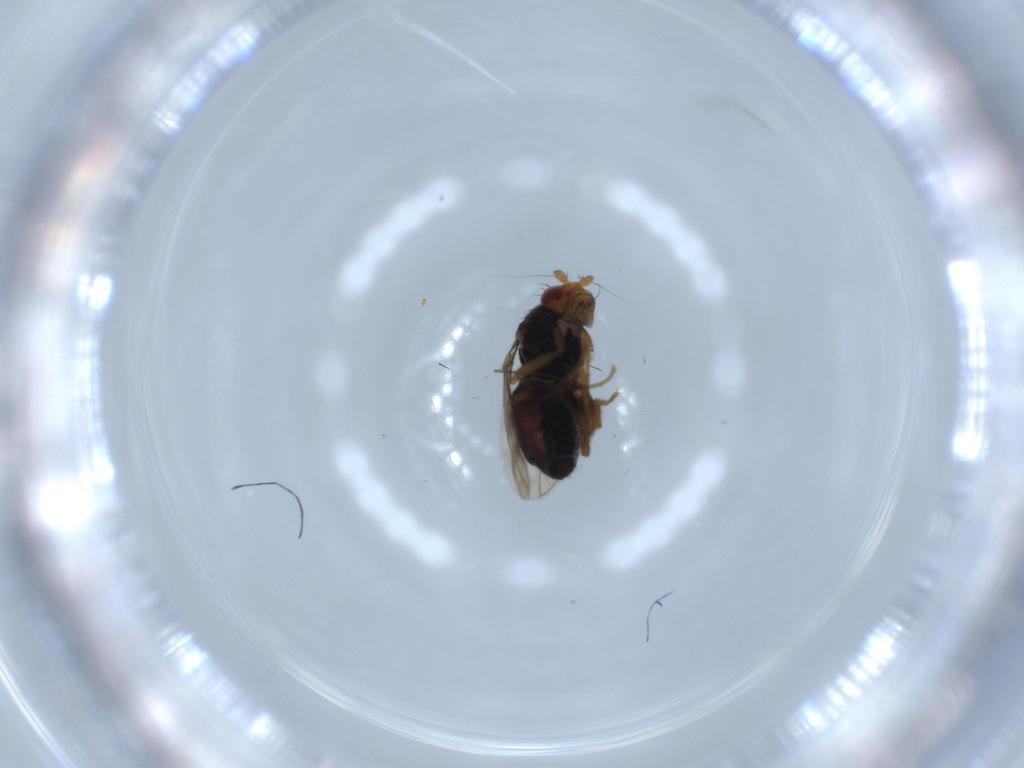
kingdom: Animalia
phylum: Arthropoda
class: Insecta
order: Diptera
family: Sphaeroceridae
